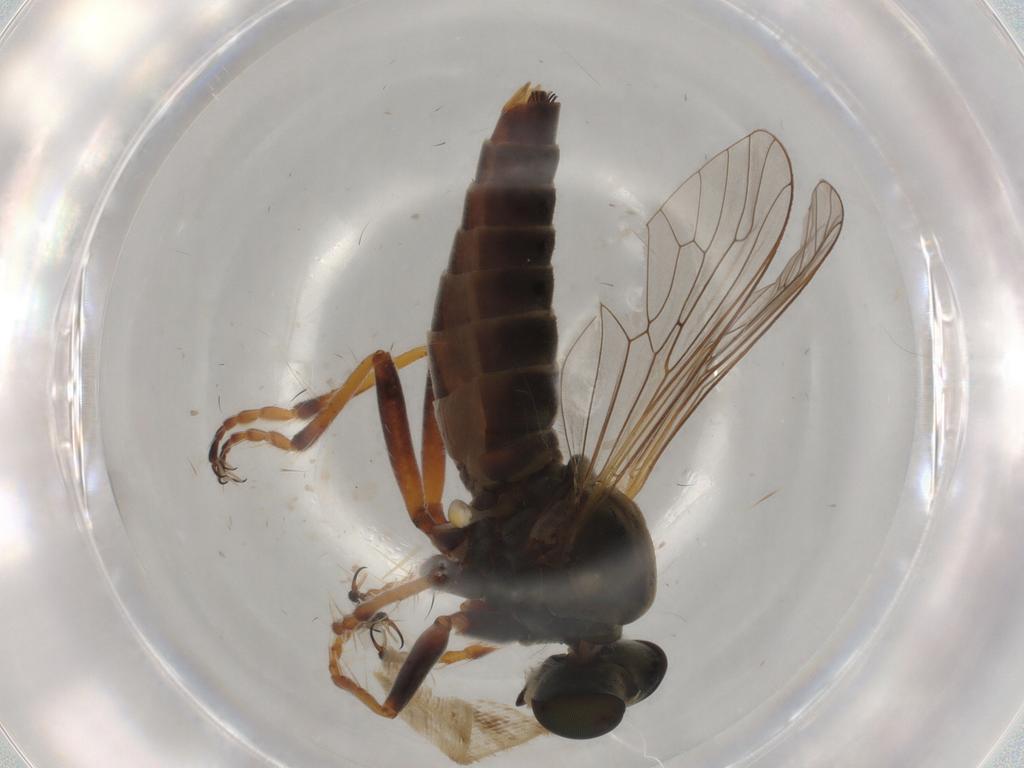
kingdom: Animalia
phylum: Arthropoda
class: Insecta
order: Diptera
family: Asilidae
